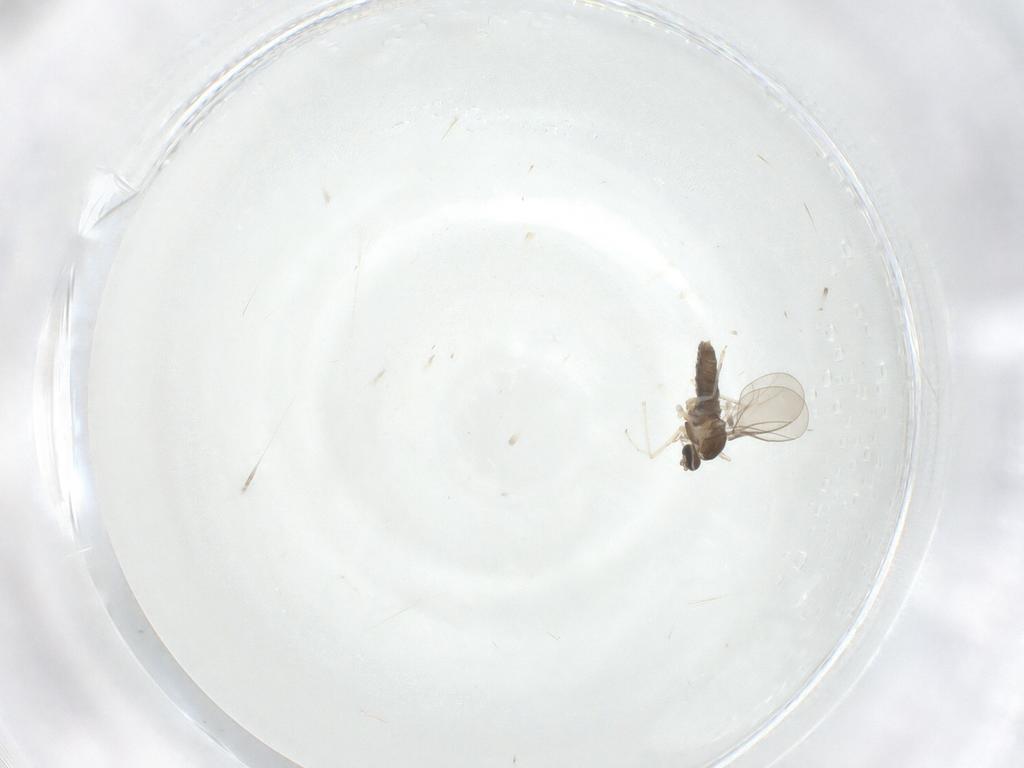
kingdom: Animalia
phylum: Arthropoda
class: Insecta
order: Diptera
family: Cecidomyiidae
